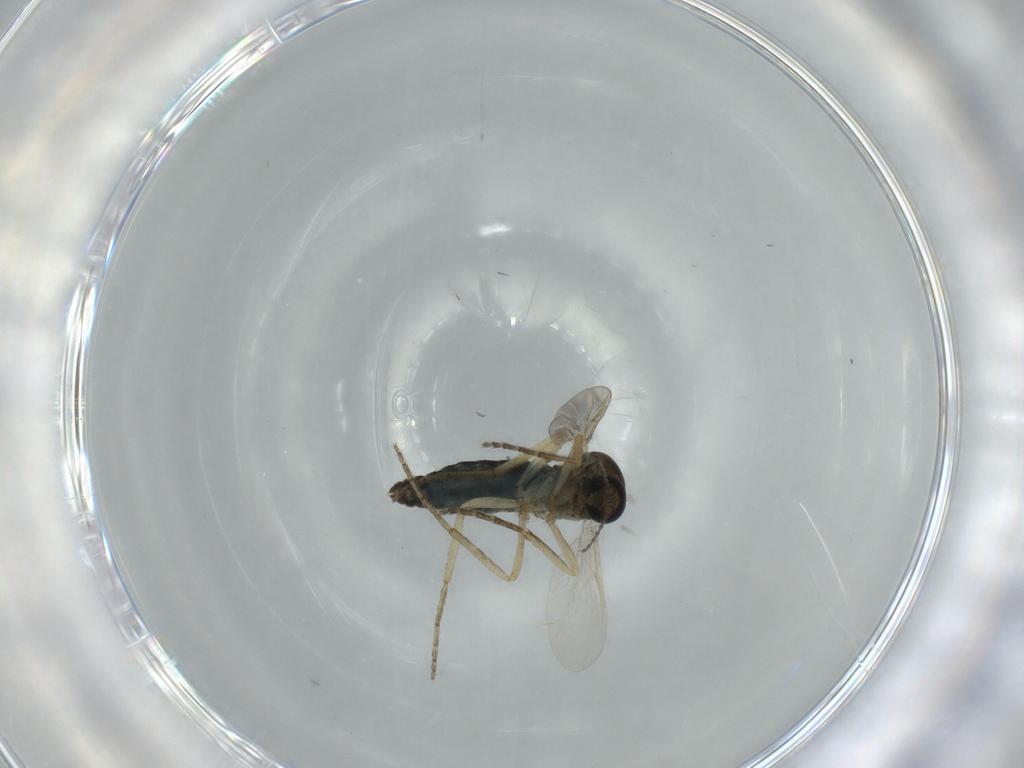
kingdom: Animalia
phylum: Arthropoda
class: Insecta
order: Diptera
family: Ceratopogonidae
